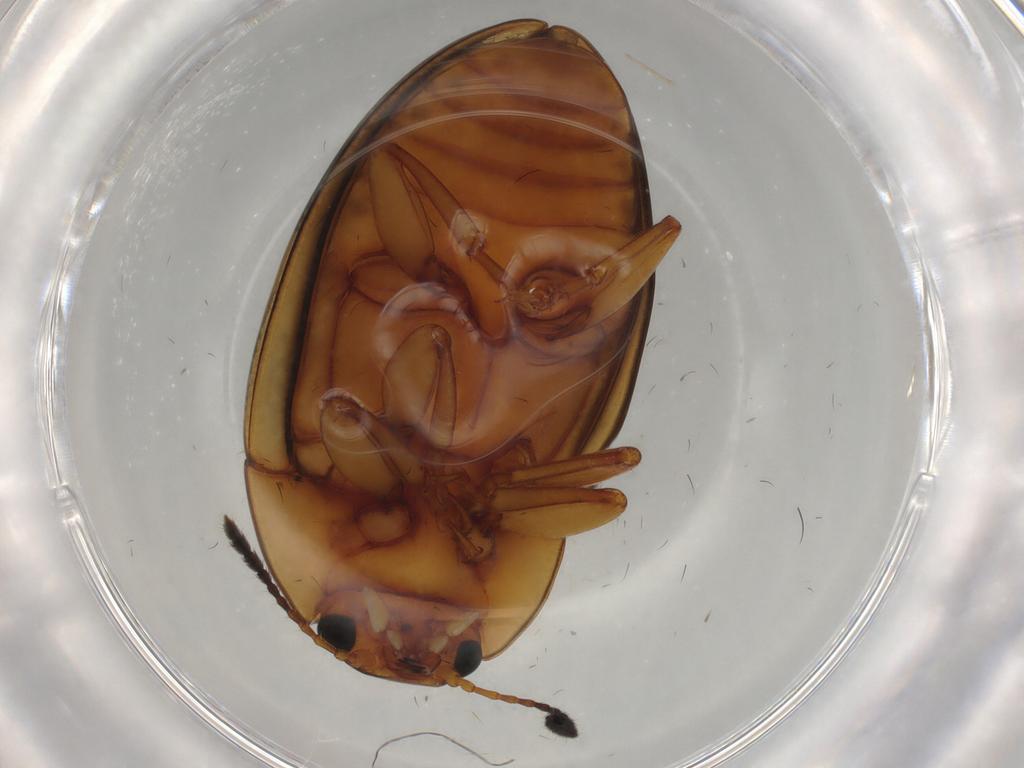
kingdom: Animalia
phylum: Arthropoda
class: Insecta
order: Coleoptera
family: Erotylidae
